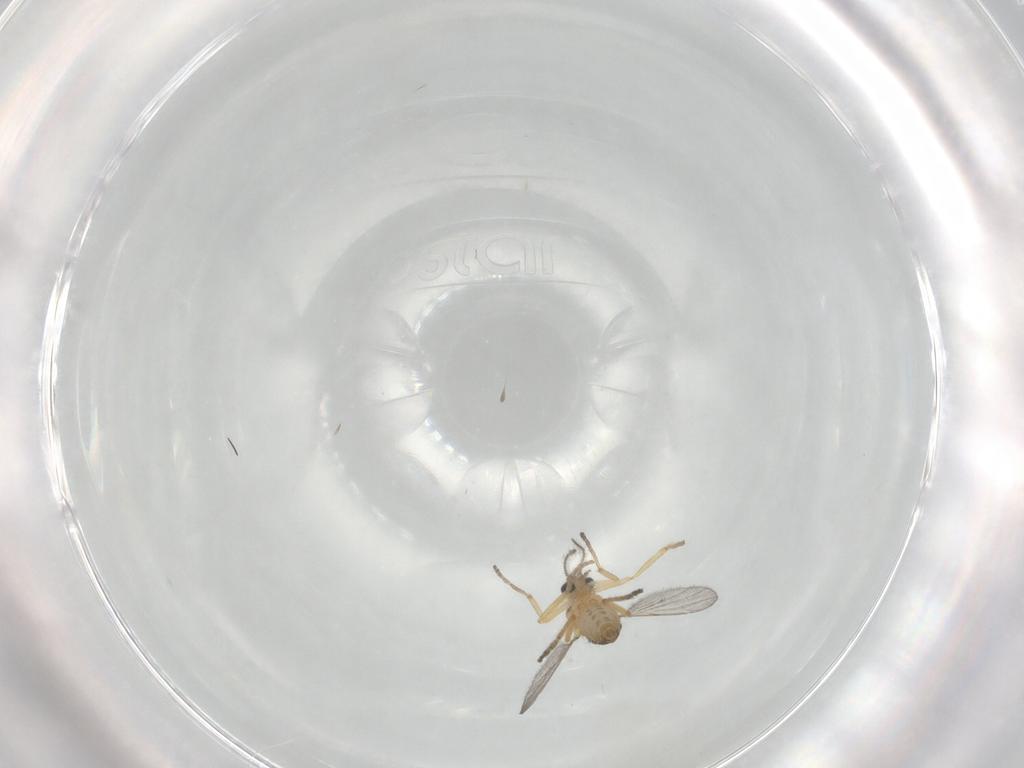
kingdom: Animalia
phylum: Arthropoda
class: Insecta
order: Diptera
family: Ceratopogonidae
